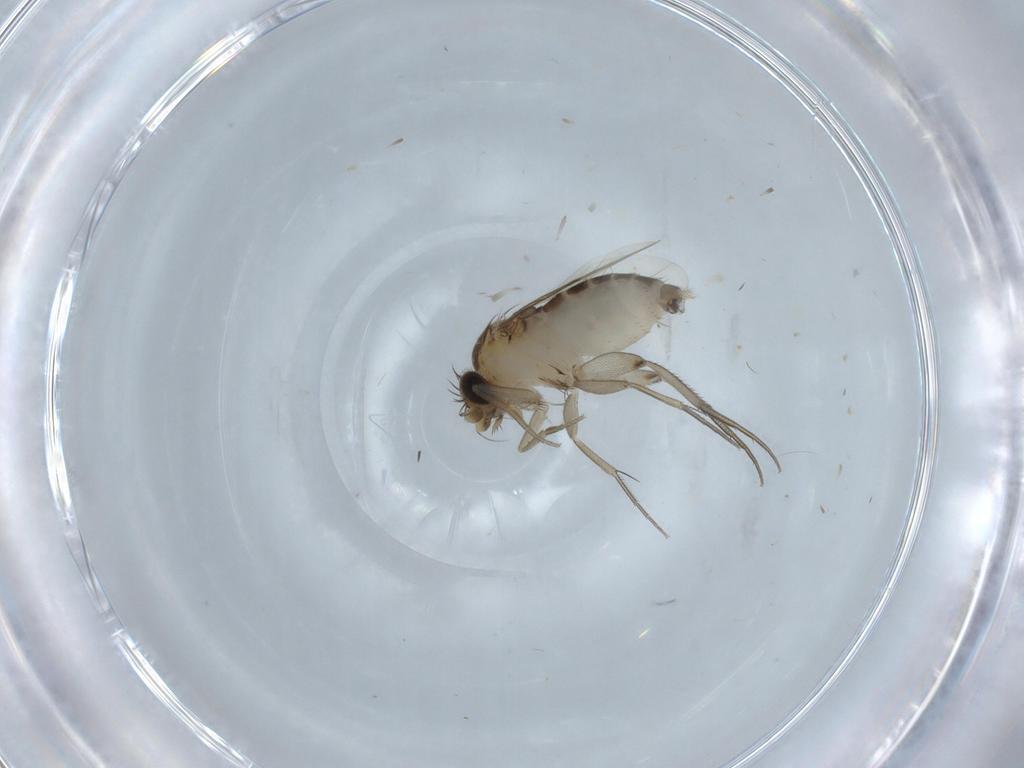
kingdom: Animalia
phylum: Arthropoda
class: Insecta
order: Diptera
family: Phoridae
